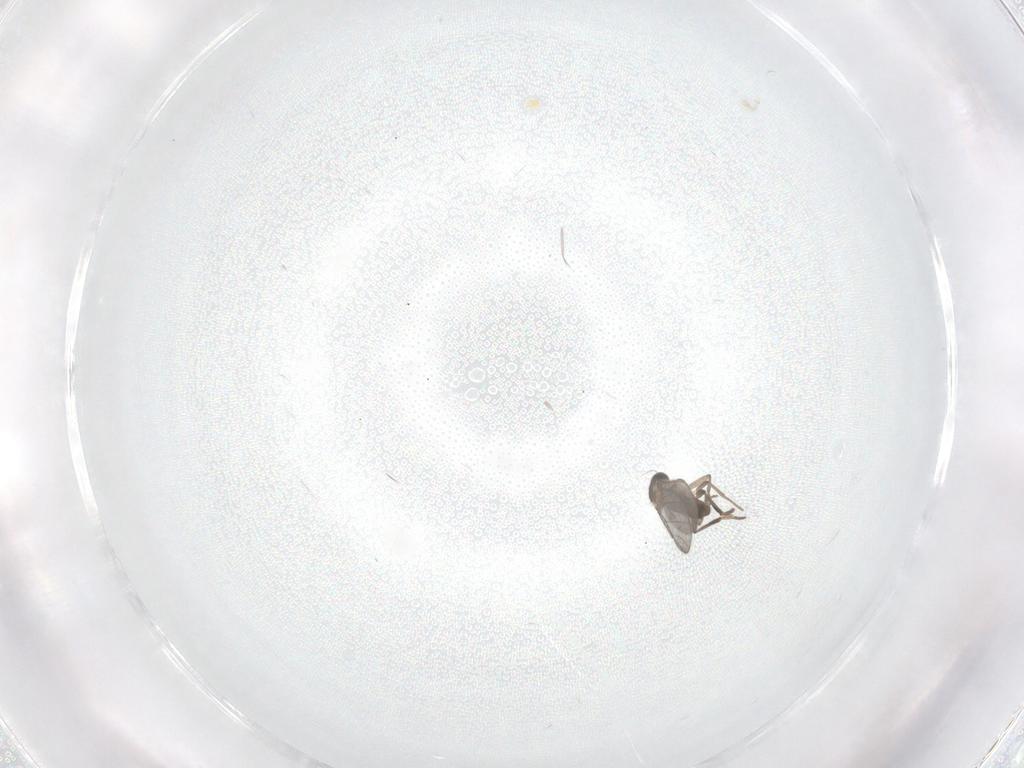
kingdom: Animalia
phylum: Arthropoda
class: Insecta
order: Diptera
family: Phoridae
